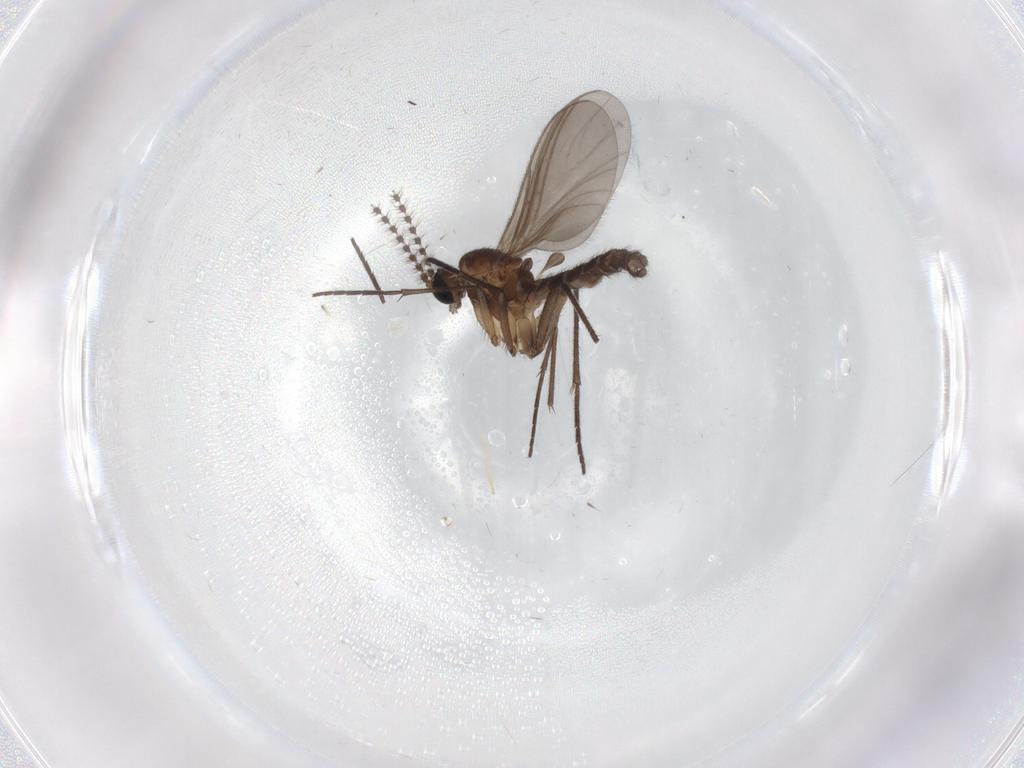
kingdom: Animalia
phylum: Arthropoda
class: Insecta
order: Diptera
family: Sciaridae
